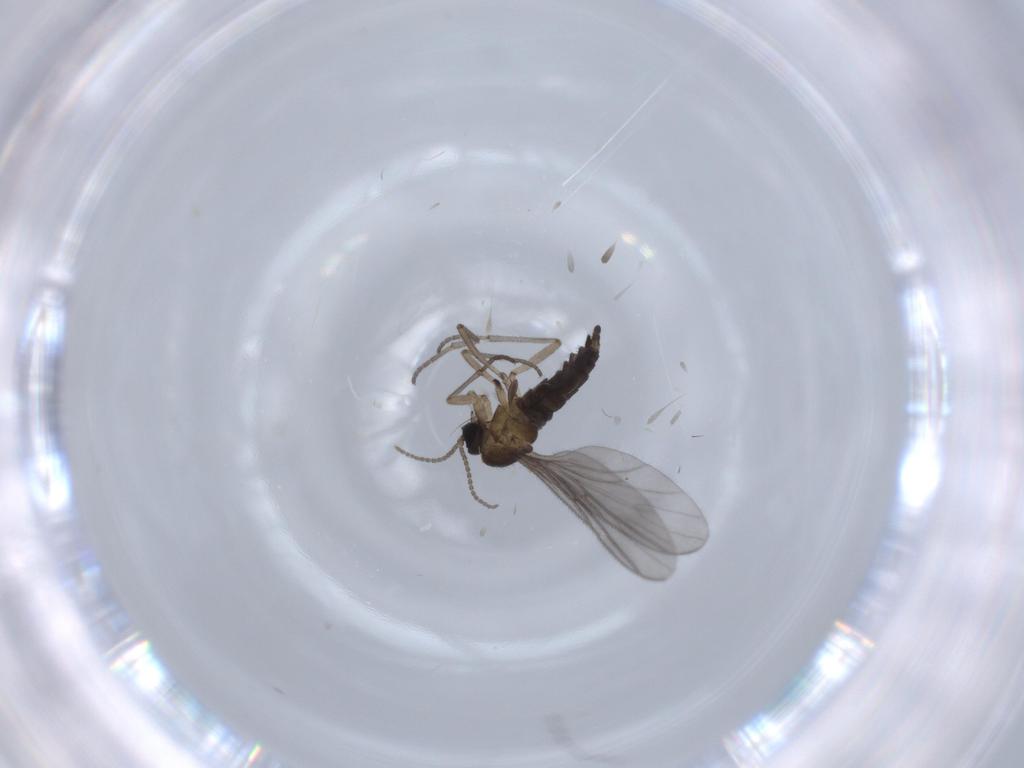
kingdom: Animalia
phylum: Arthropoda
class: Insecta
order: Diptera
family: Sciaridae
